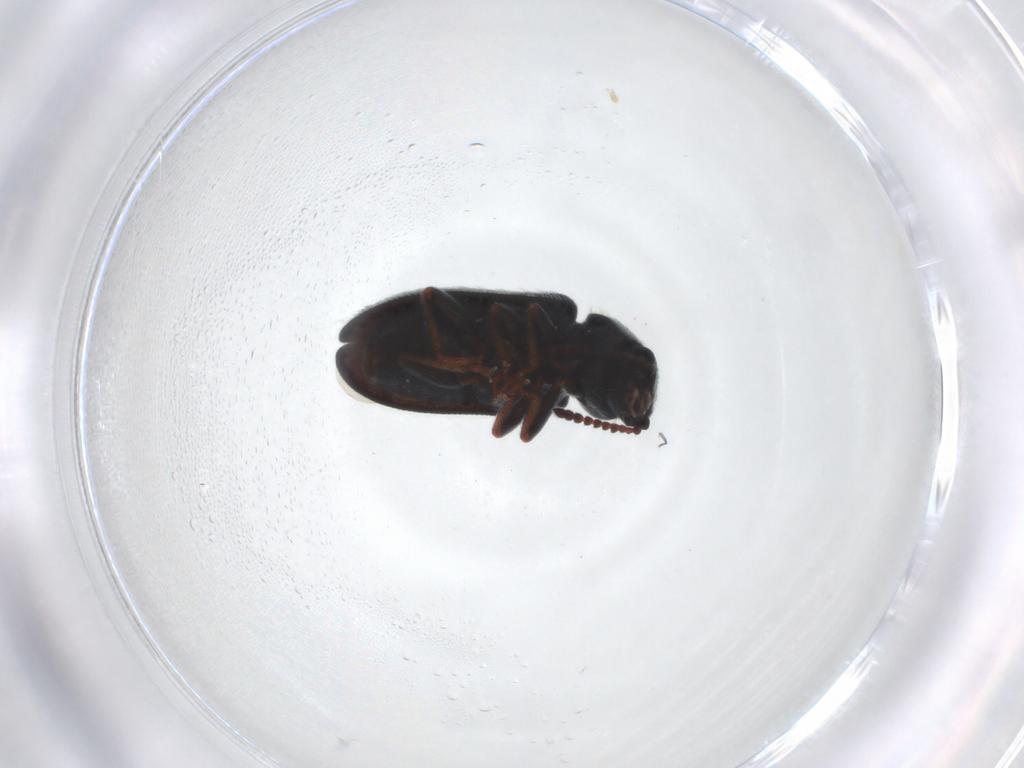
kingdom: Animalia
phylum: Arthropoda
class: Insecta
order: Coleoptera
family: Melyridae
